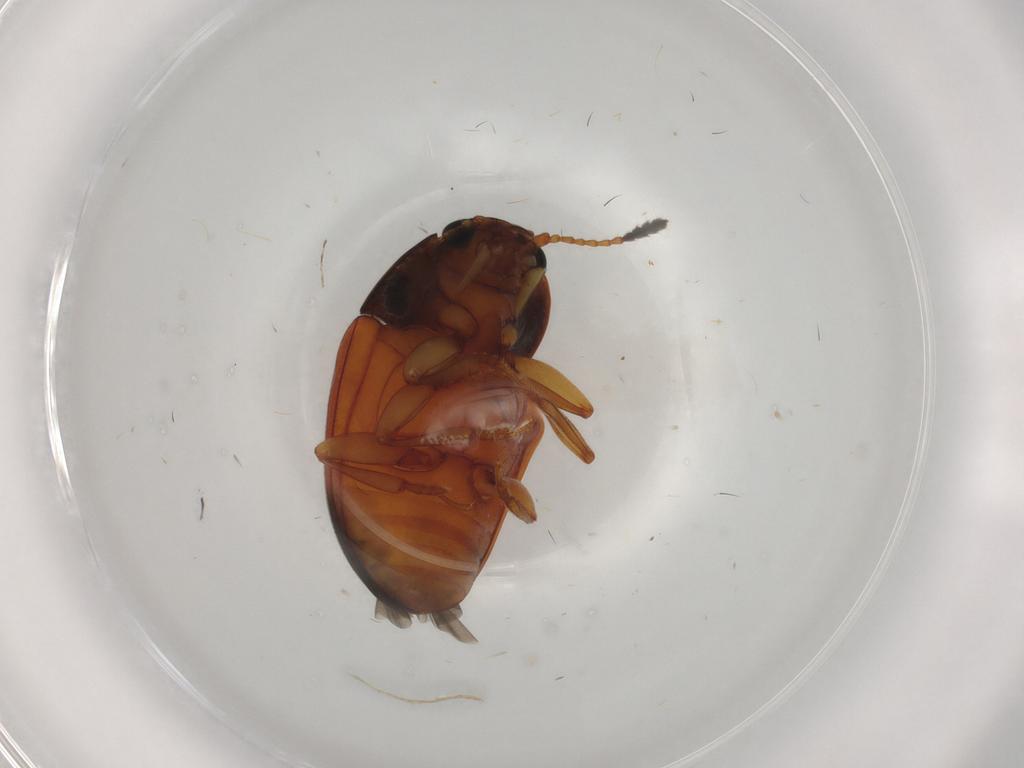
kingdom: Animalia
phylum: Arthropoda
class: Insecta
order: Coleoptera
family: Erotylidae
